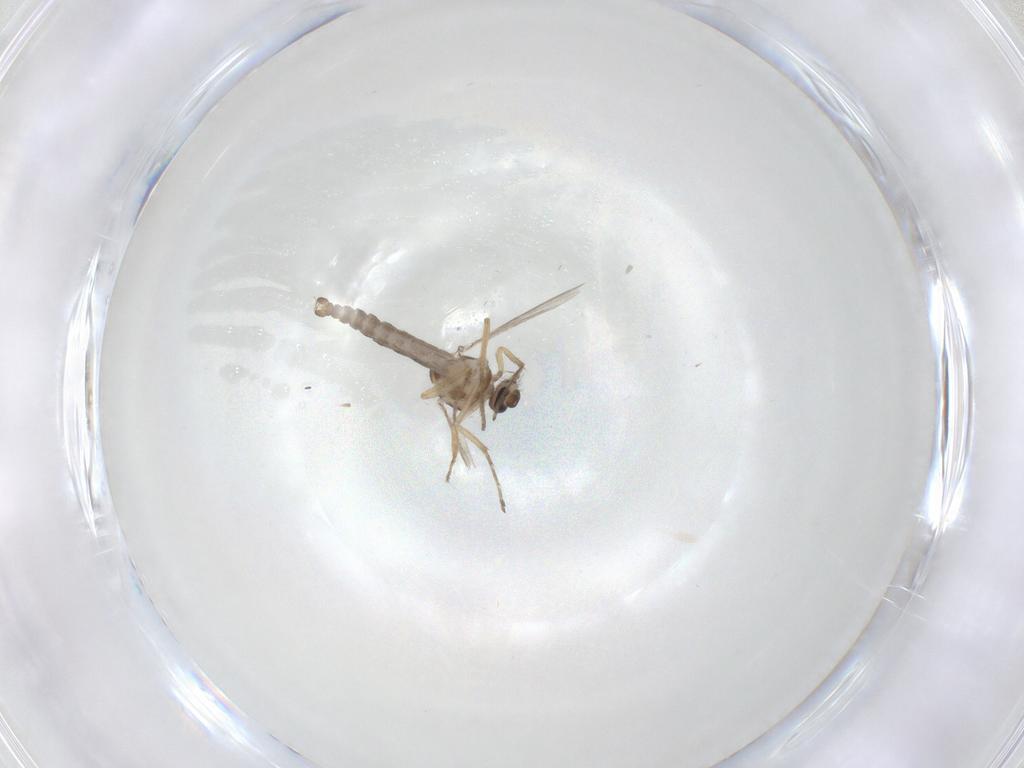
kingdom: Animalia
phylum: Arthropoda
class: Insecta
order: Diptera
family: Ceratopogonidae
